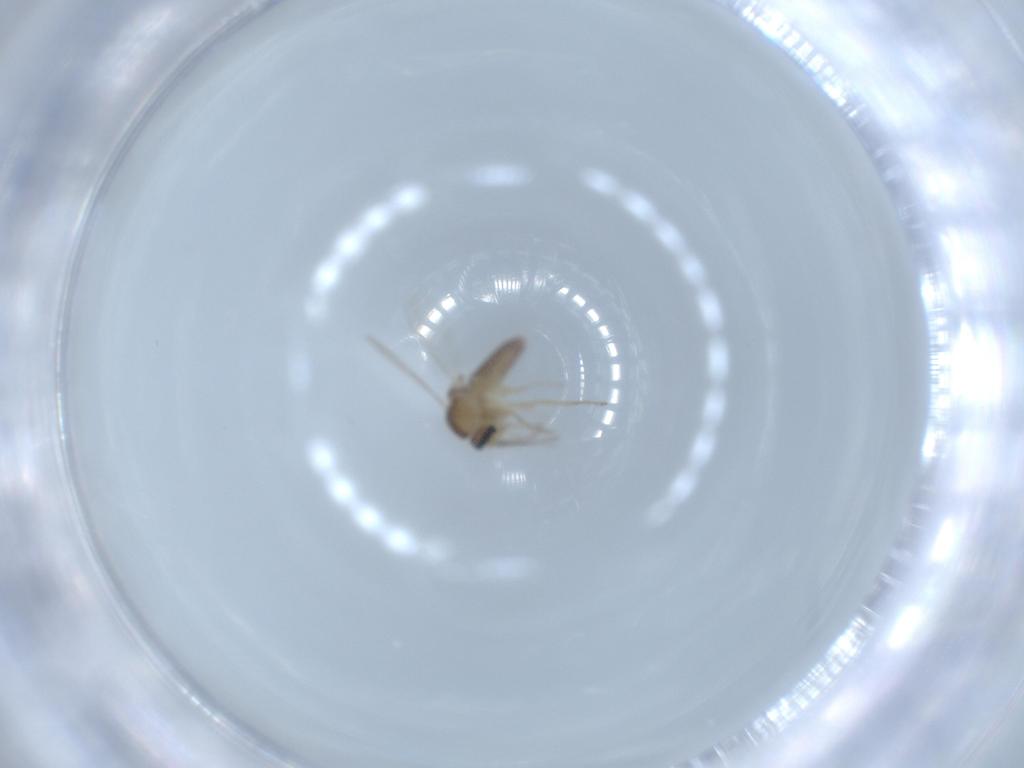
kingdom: Animalia
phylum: Arthropoda
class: Insecta
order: Diptera
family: Ceratopogonidae
